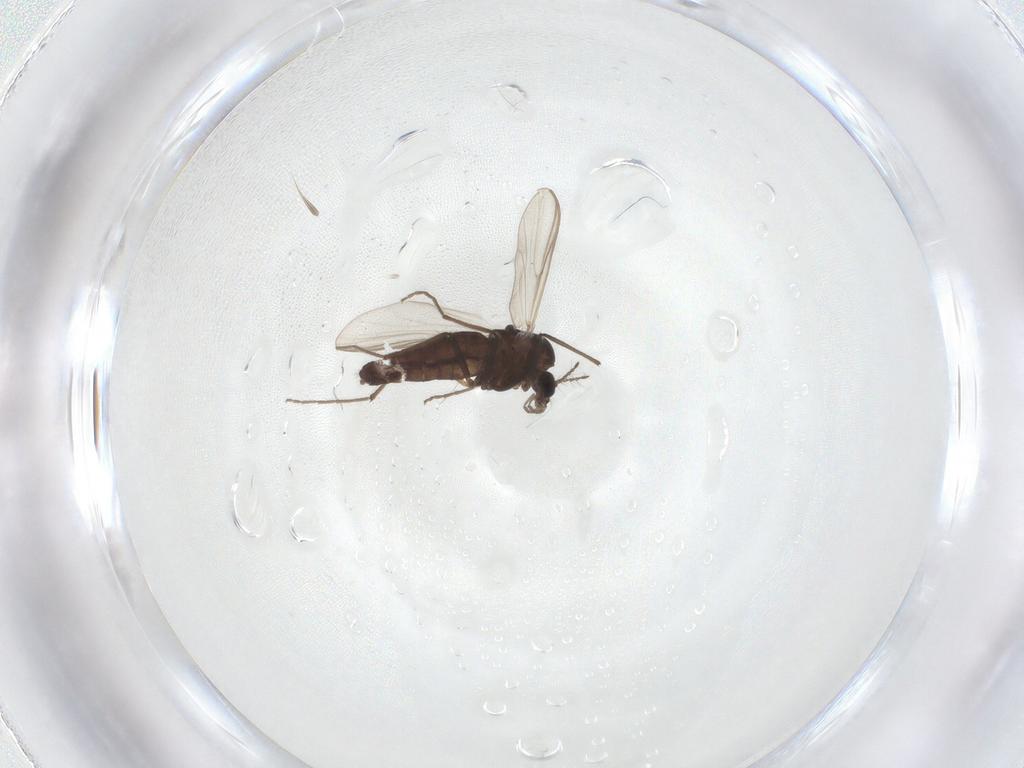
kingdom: Animalia
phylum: Arthropoda
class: Insecta
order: Diptera
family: Chironomidae
